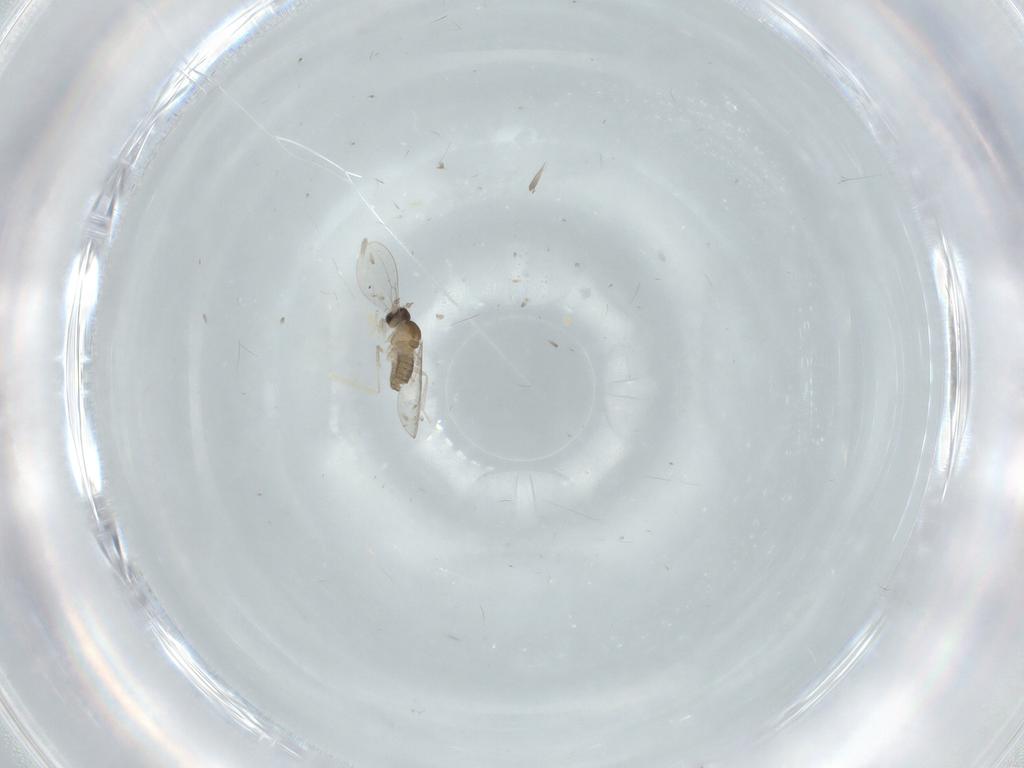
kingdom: Animalia
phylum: Arthropoda
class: Insecta
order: Diptera
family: Cecidomyiidae
